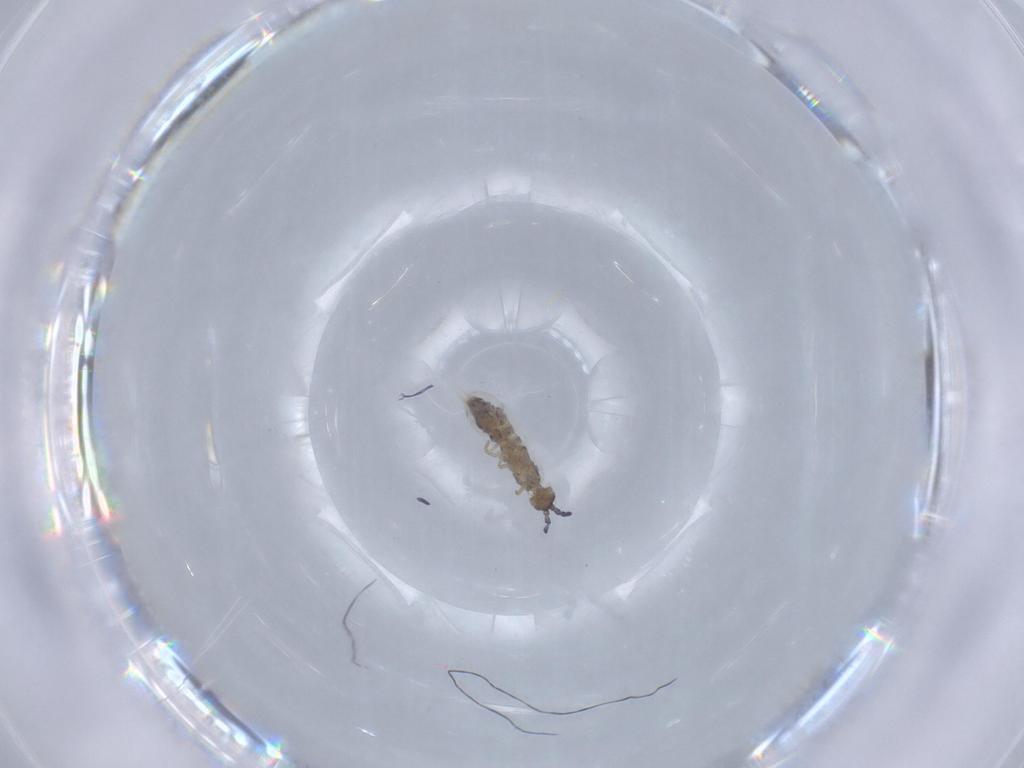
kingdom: Animalia
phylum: Arthropoda
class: Collembola
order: Entomobryomorpha
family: Isotomidae
